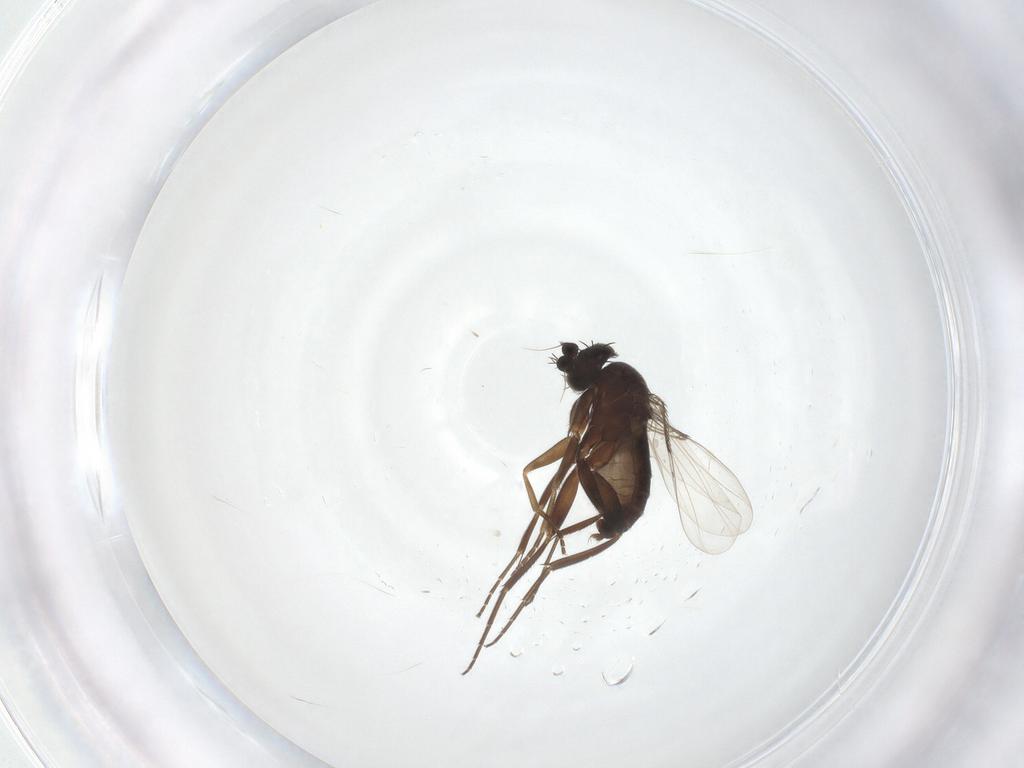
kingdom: Animalia
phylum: Arthropoda
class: Insecta
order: Diptera
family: Phoridae
